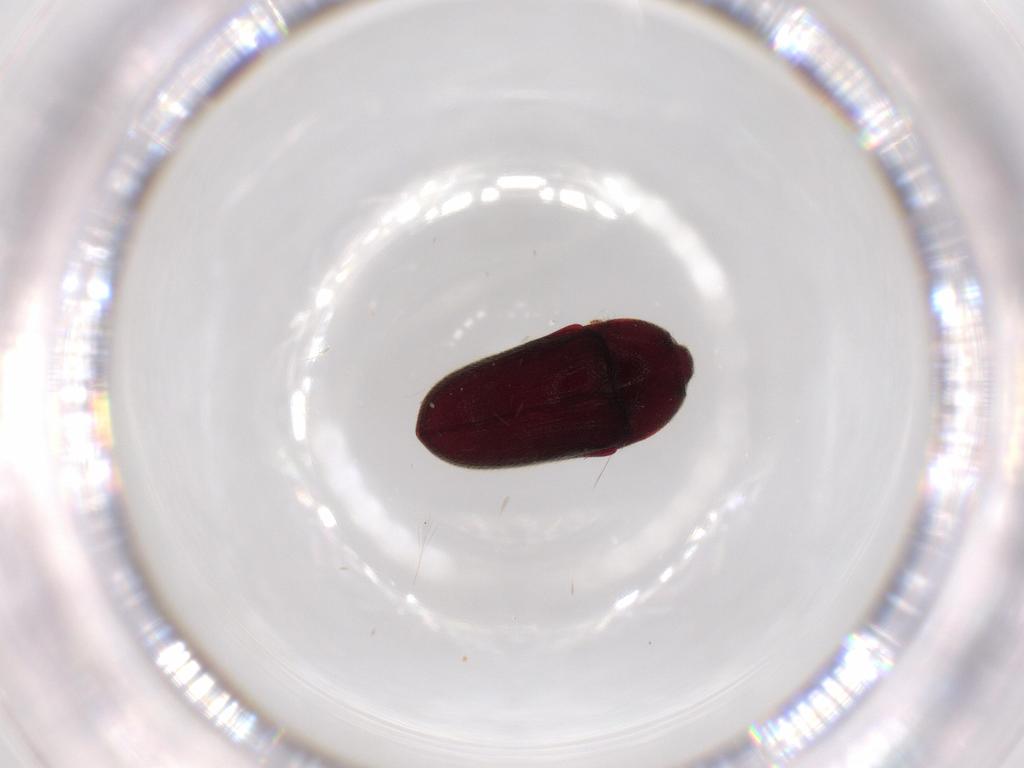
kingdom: Animalia
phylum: Arthropoda
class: Insecta
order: Coleoptera
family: Throscidae
